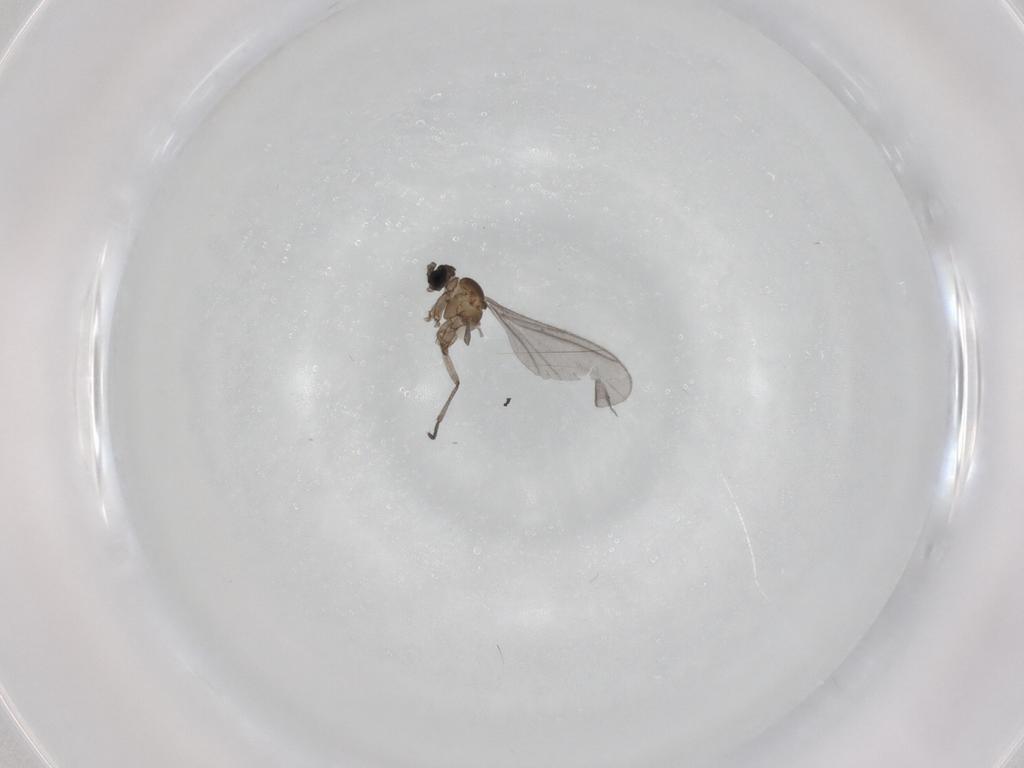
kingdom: Animalia
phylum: Arthropoda
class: Insecta
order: Diptera
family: Sciaridae
